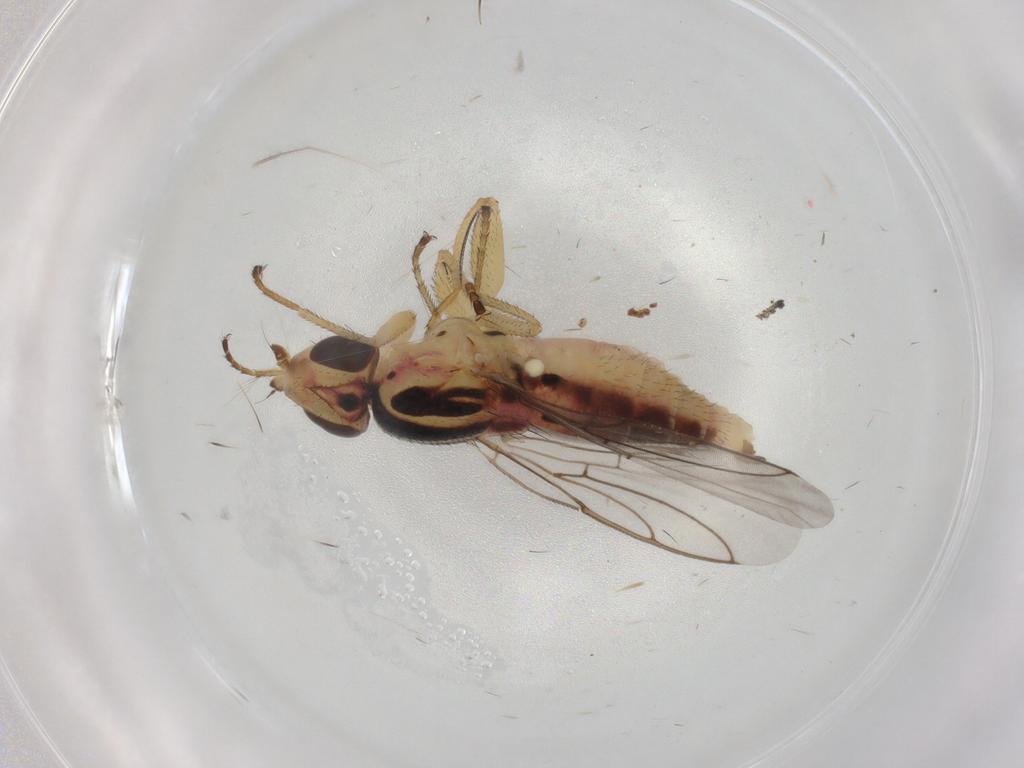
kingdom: Animalia
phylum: Arthropoda
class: Insecta
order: Diptera
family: Chloropidae
